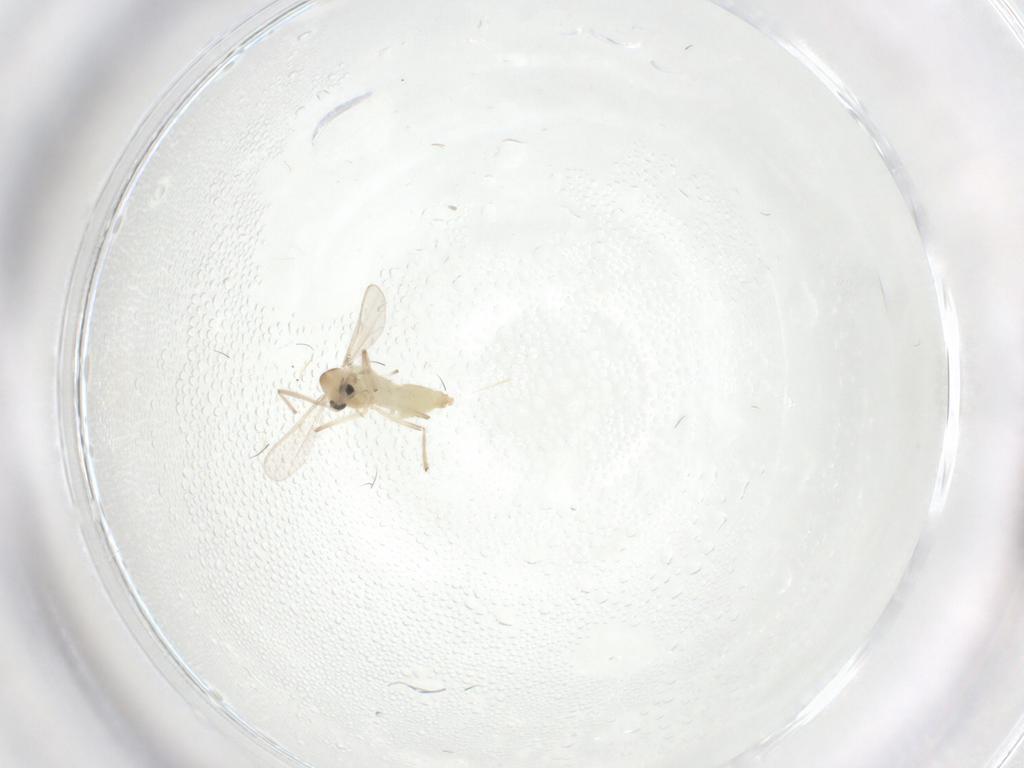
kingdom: Animalia
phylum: Arthropoda
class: Insecta
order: Diptera
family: Chironomidae
